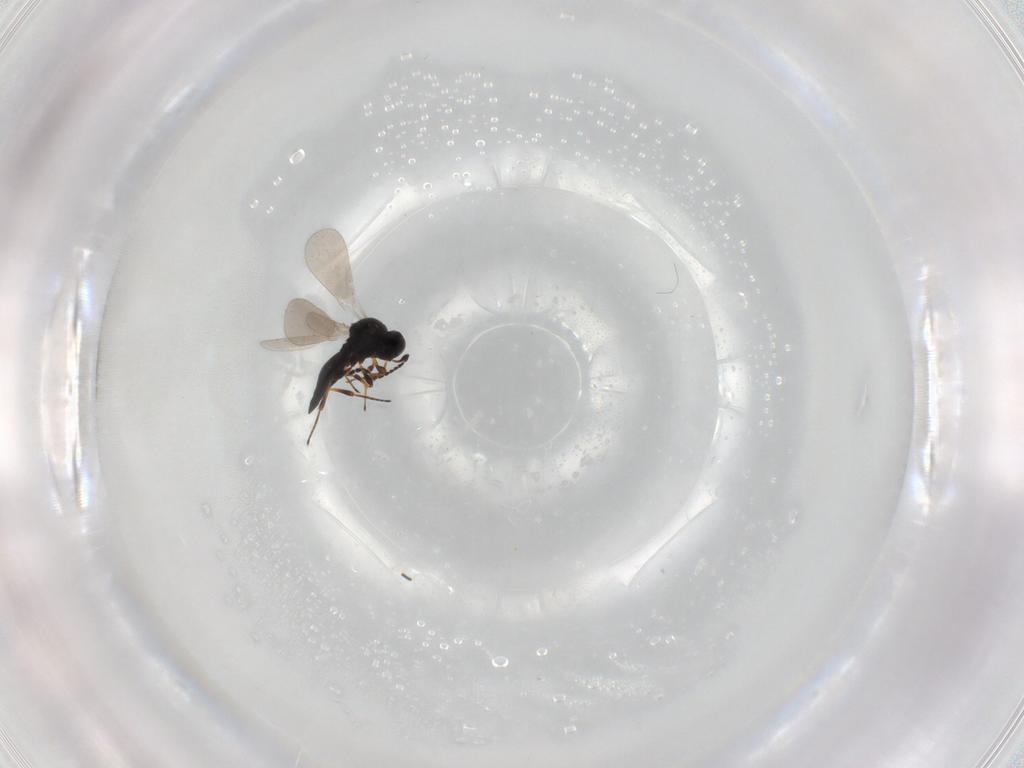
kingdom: Animalia
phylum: Arthropoda
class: Insecta
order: Hymenoptera
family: Platygastridae
